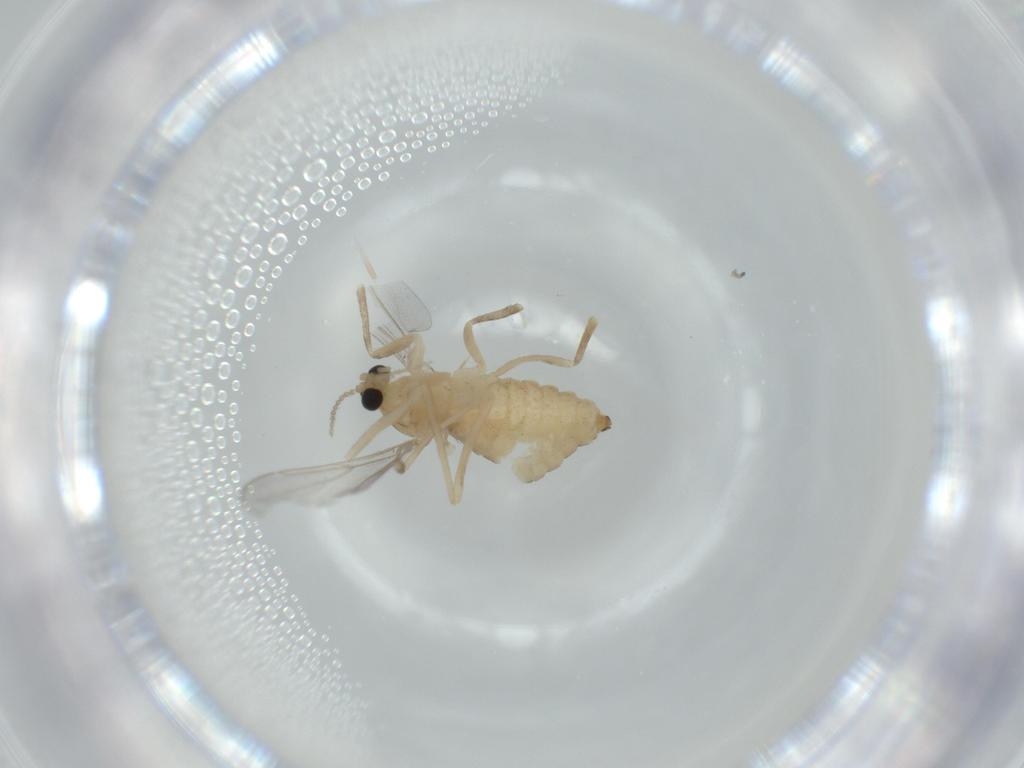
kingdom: Animalia
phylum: Arthropoda
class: Insecta
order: Diptera
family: Cecidomyiidae
